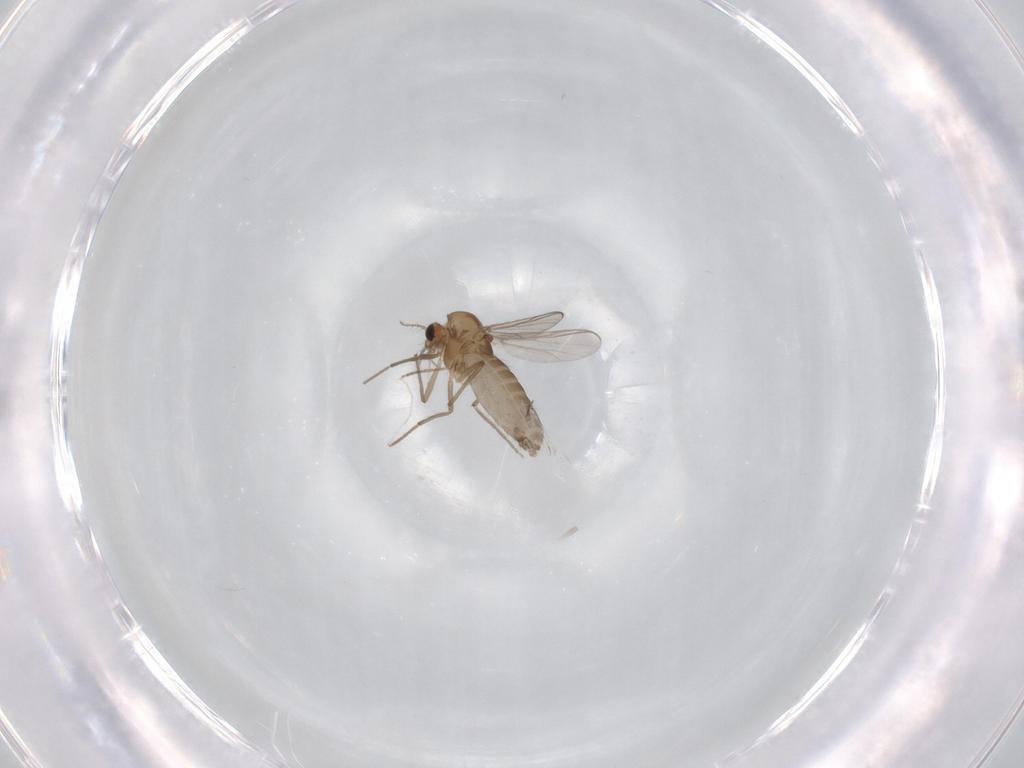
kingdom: Animalia
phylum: Arthropoda
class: Insecta
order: Diptera
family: Chironomidae
